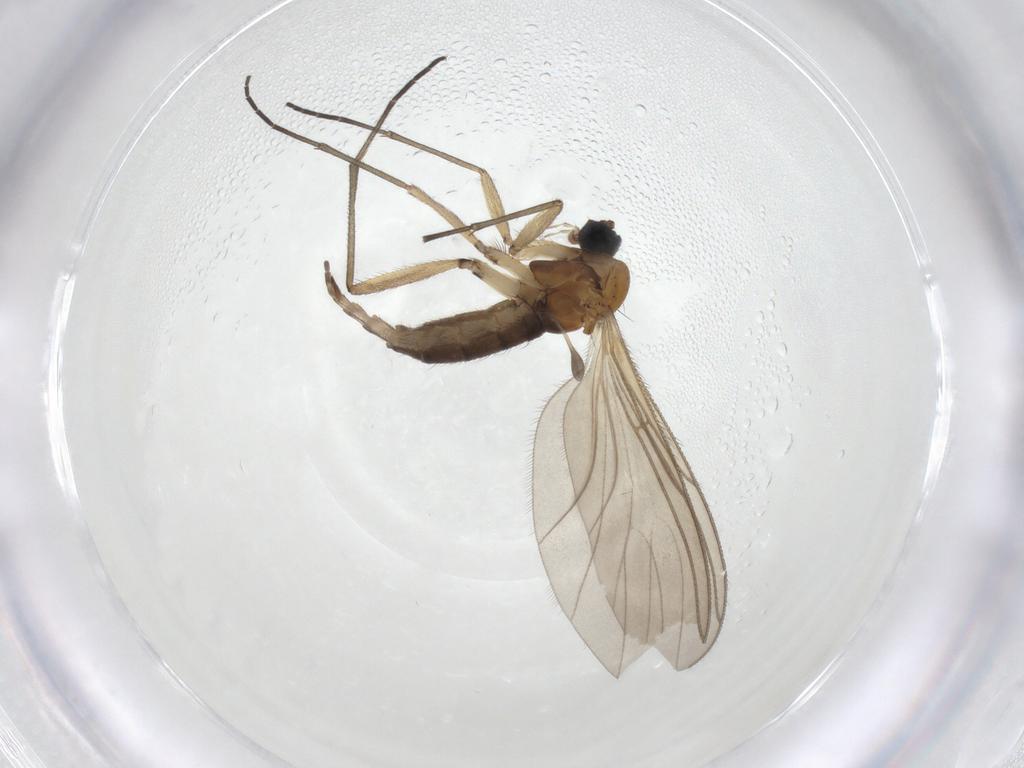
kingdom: Animalia
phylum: Arthropoda
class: Insecta
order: Diptera
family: Sciaridae
